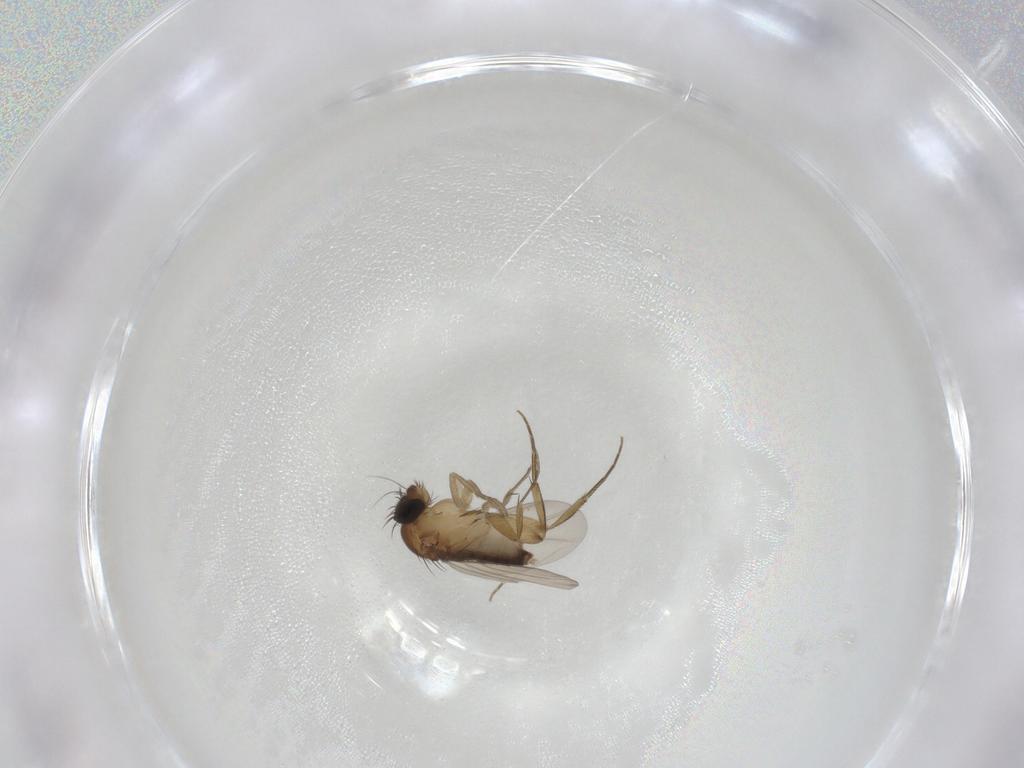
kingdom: Animalia
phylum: Arthropoda
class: Insecta
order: Diptera
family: Phoridae
